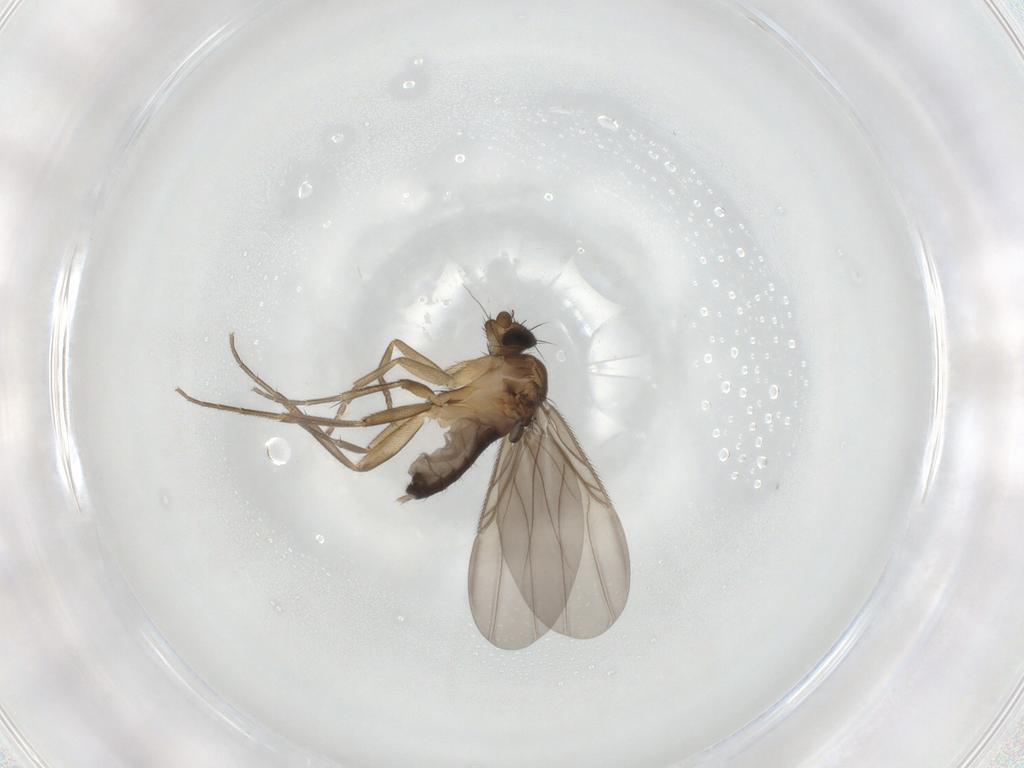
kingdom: Animalia
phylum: Arthropoda
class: Insecta
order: Diptera
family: Phoridae
